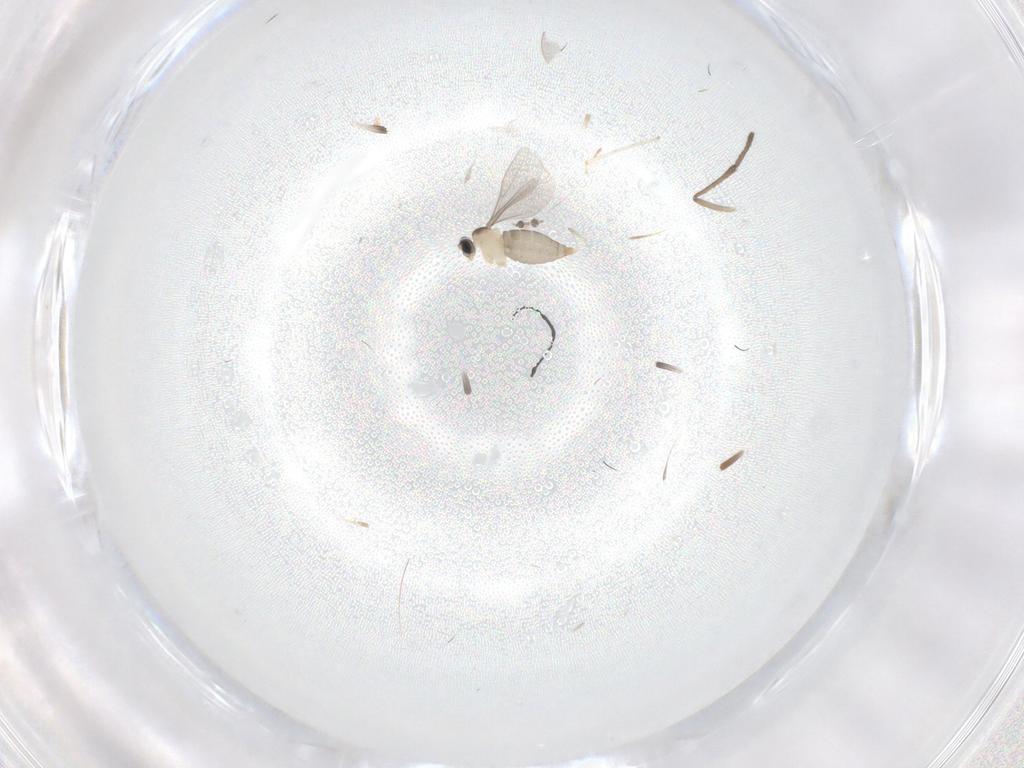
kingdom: Animalia
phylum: Arthropoda
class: Insecta
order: Diptera
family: Cecidomyiidae
